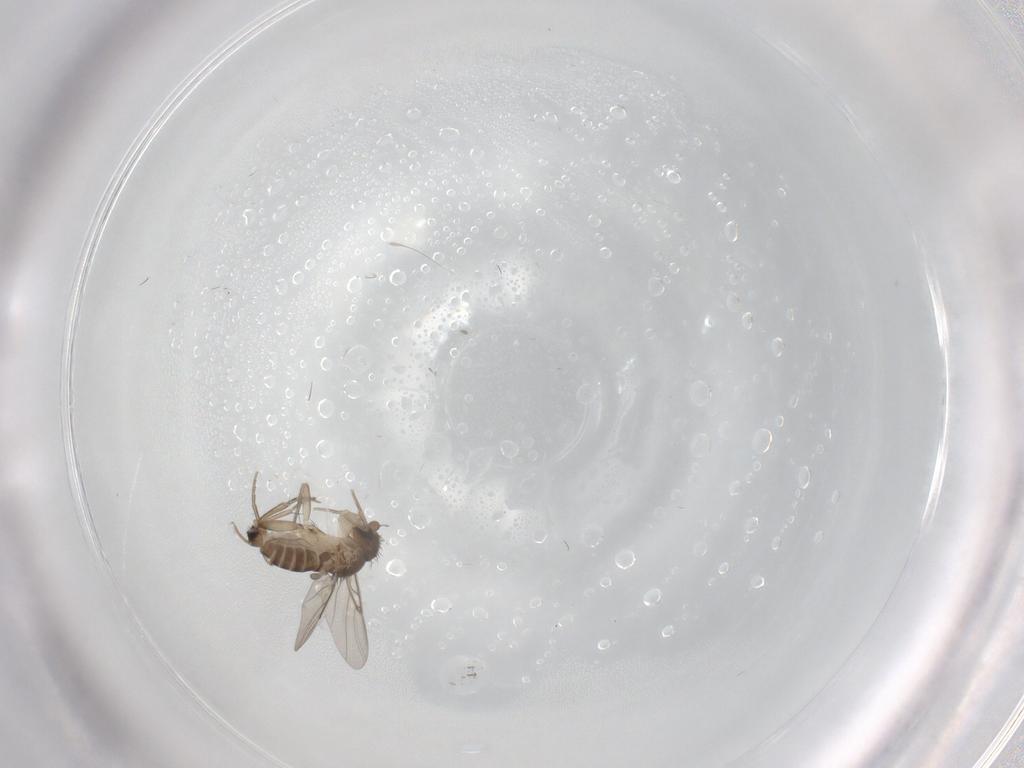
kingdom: Animalia
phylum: Arthropoda
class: Insecta
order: Diptera
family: Phoridae
